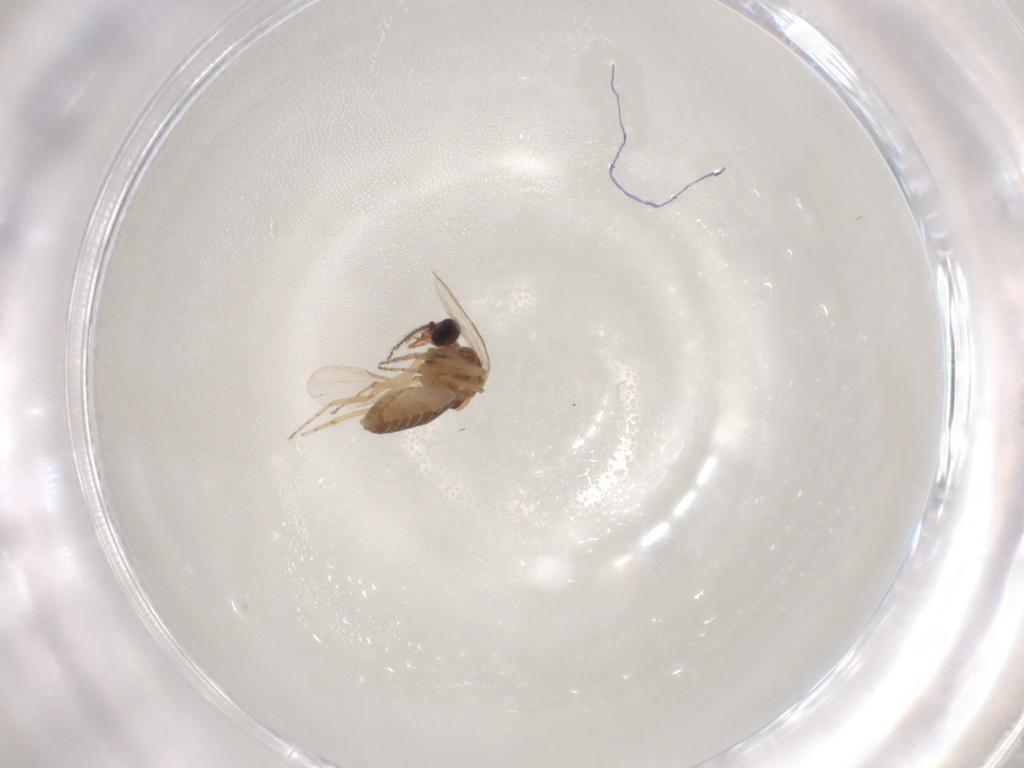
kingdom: Animalia
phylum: Arthropoda
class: Insecta
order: Diptera
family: Ceratopogonidae
